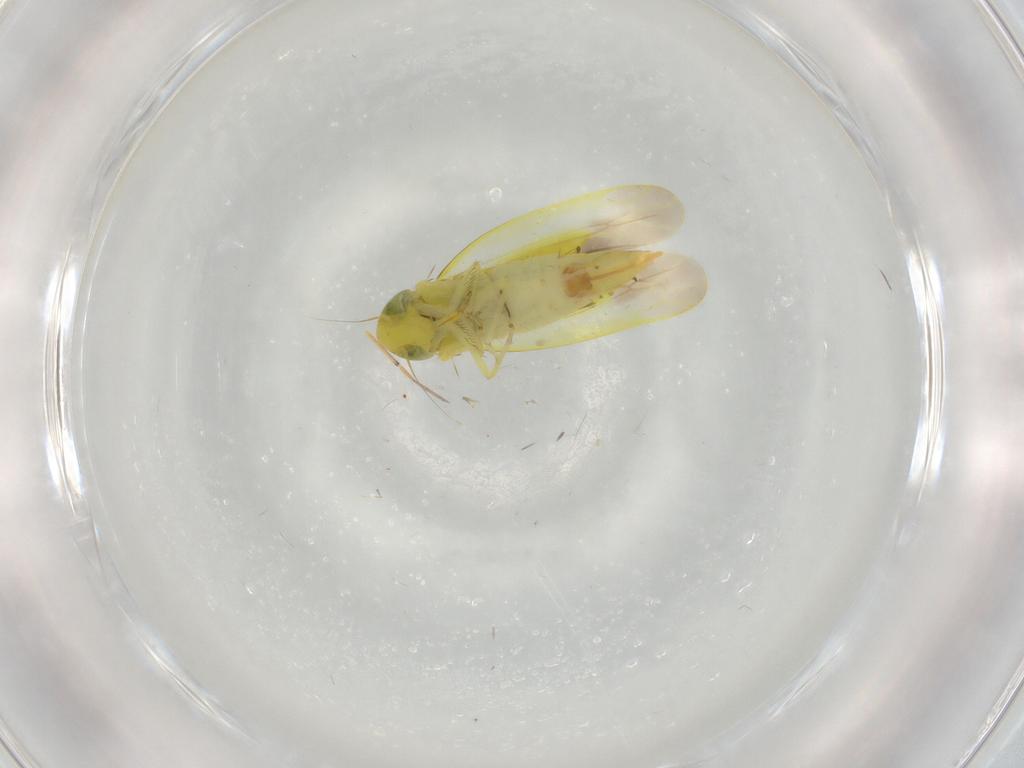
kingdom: Animalia
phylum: Arthropoda
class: Insecta
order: Hemiptera
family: Cicadellidae
